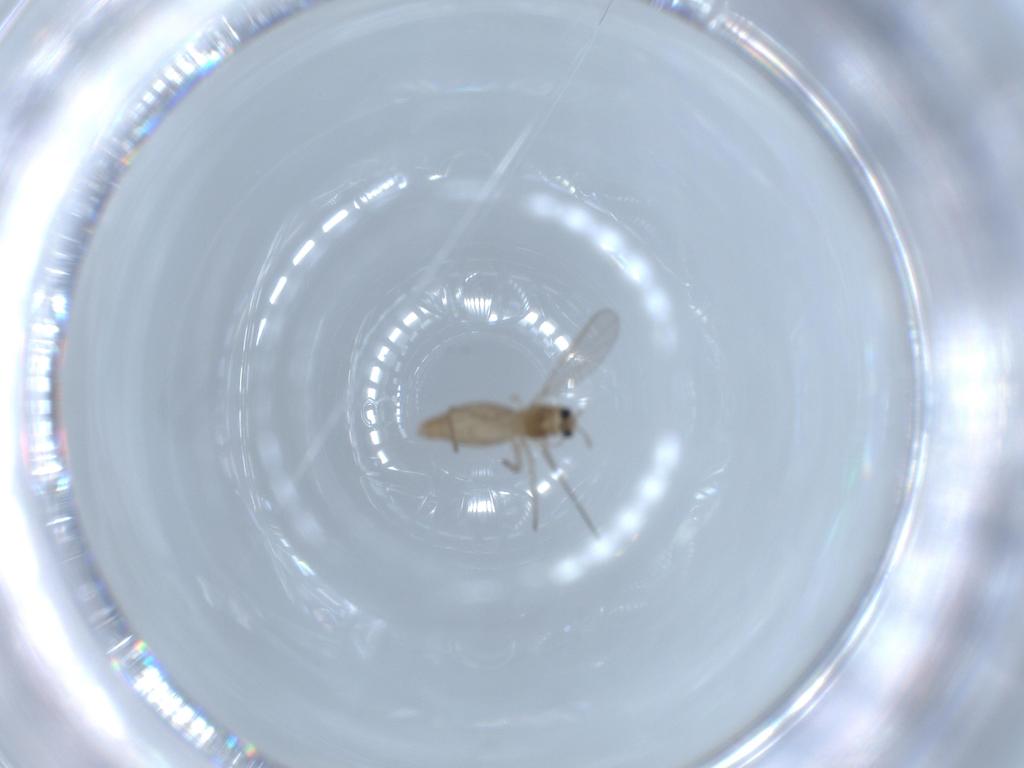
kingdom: Animalia
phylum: Arthropoda
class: Insecta
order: Diptera
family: Chironomidae
